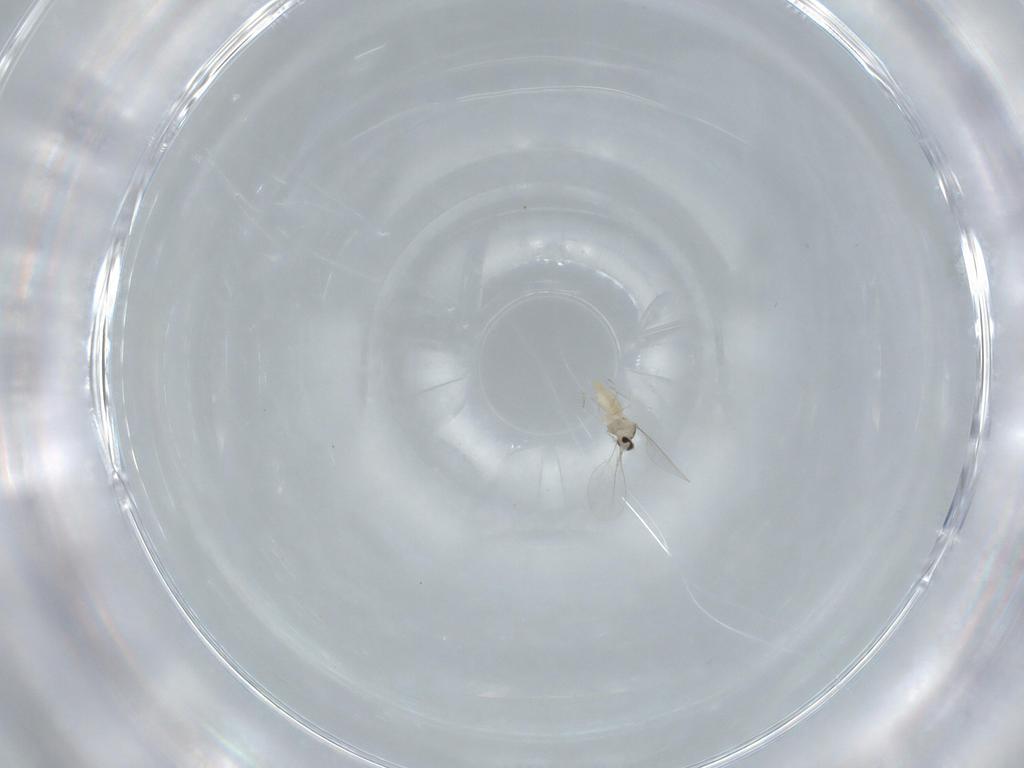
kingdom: Animalia
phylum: Arthropoda
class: Insecta
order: Diptera
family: Cecidomyiidae
